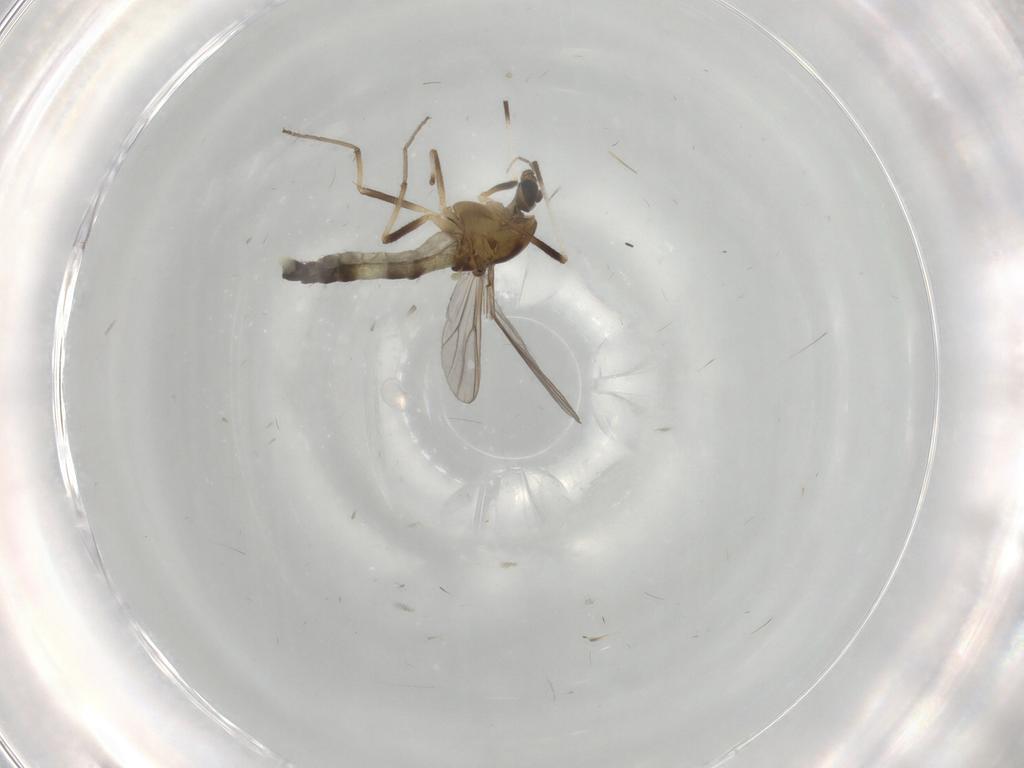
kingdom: Animalia
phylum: Arthropoda
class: Insecta
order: Diptera
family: Chironomidae
